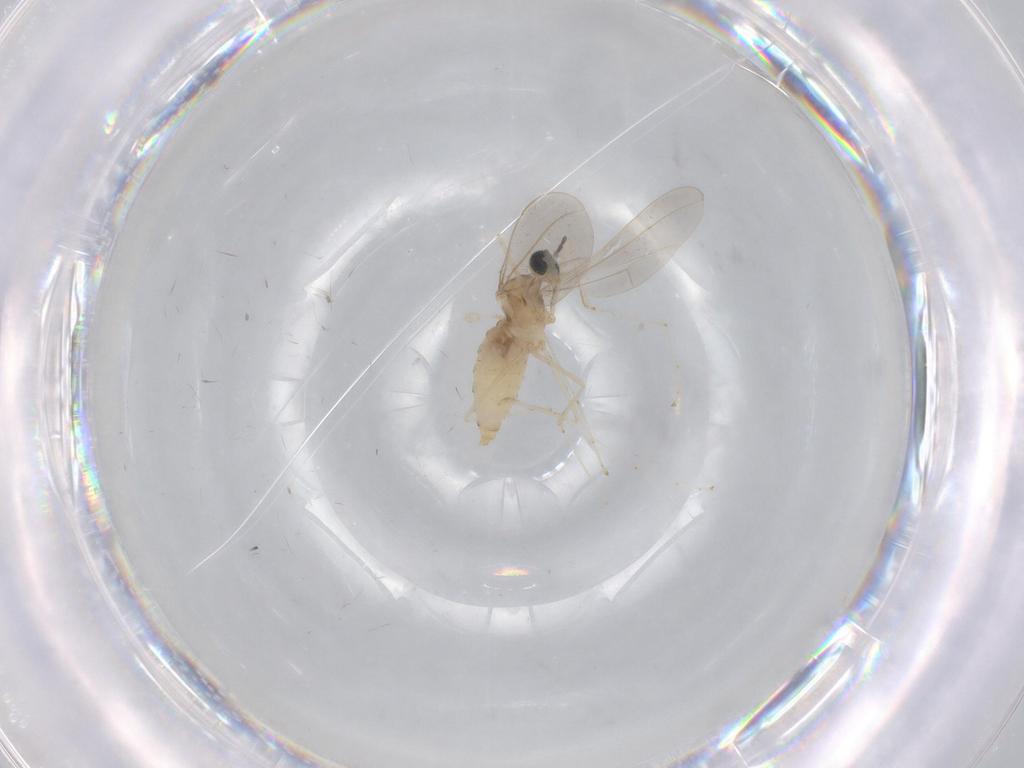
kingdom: Animalia
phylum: Arthropoda
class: Insecta
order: Diptera
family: Cecidomyiidae
